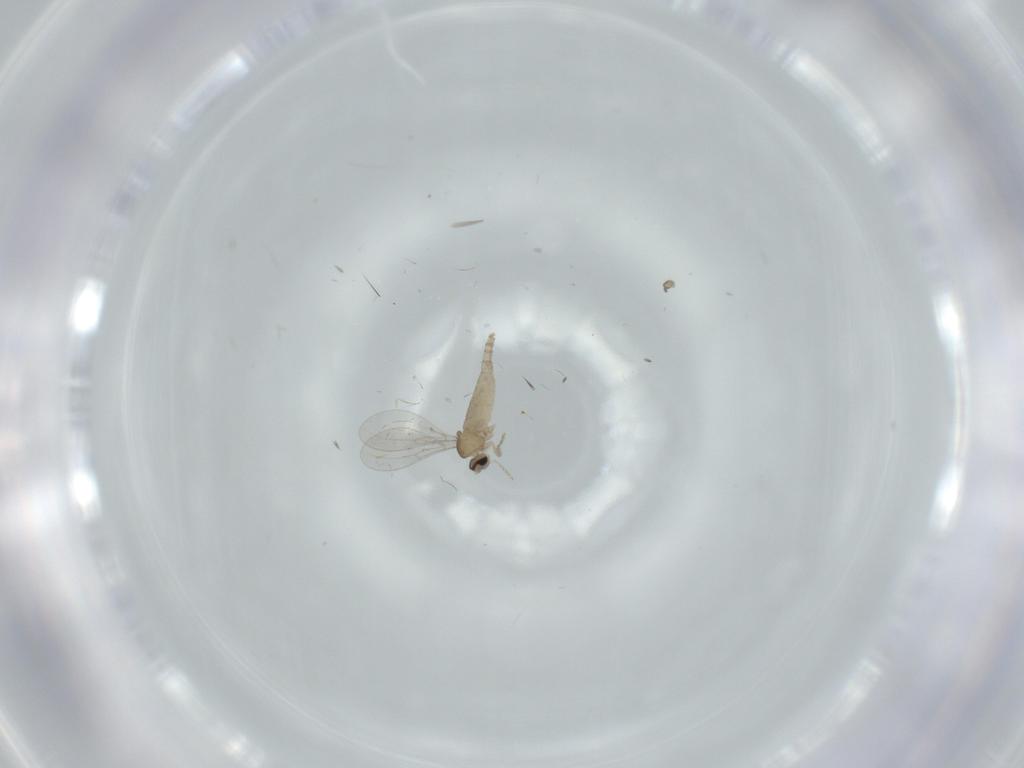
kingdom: Animalia
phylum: Arthropoda
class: Insecta
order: Diptera
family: Cecidomyiidae
